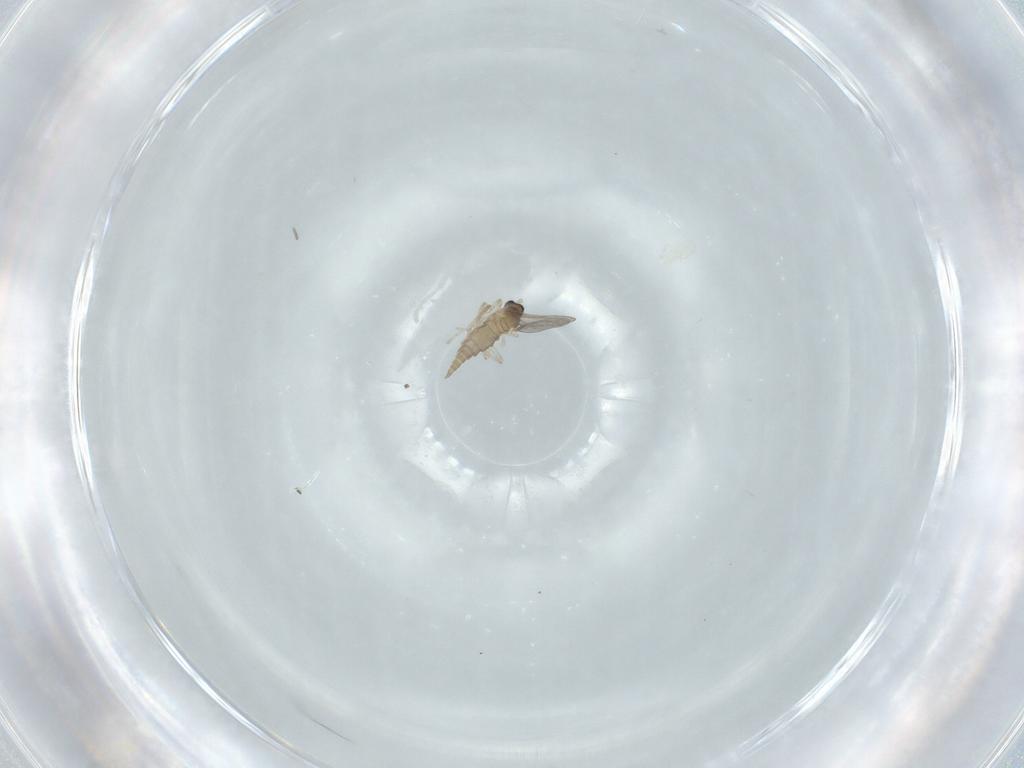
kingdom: Animalia
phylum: Arthropoda
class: Insecta
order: Diptera
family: Cecidomyiidae
